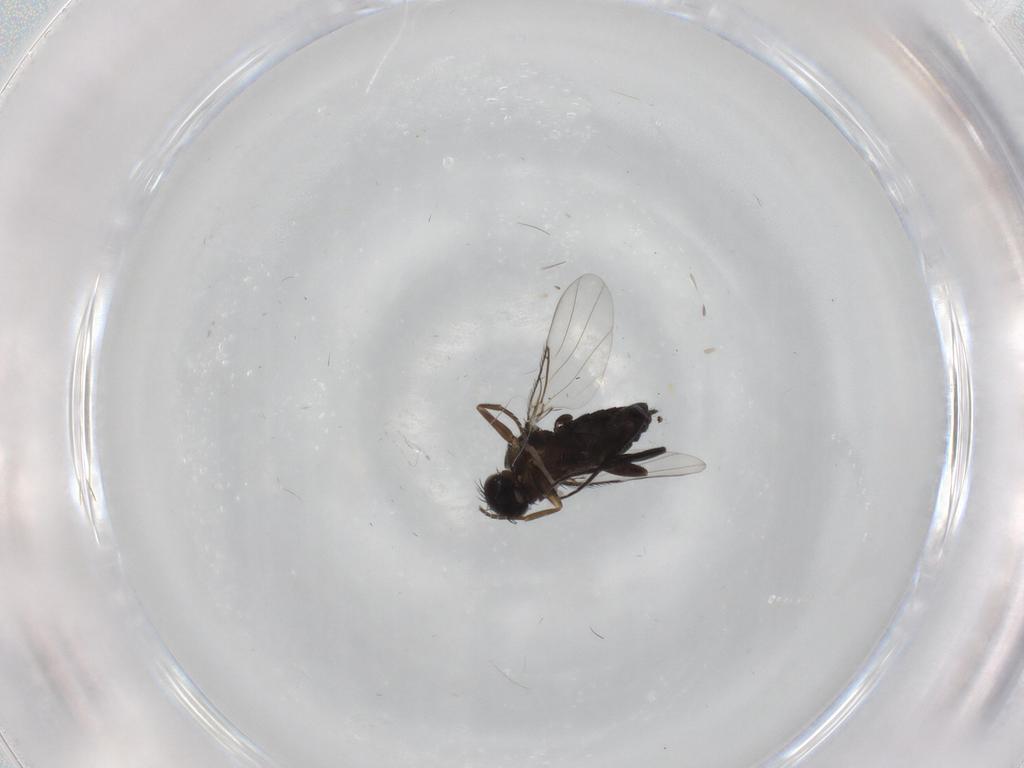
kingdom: Animalia
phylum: Arthropoda
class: Insecta
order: Diptera
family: Phoridae
